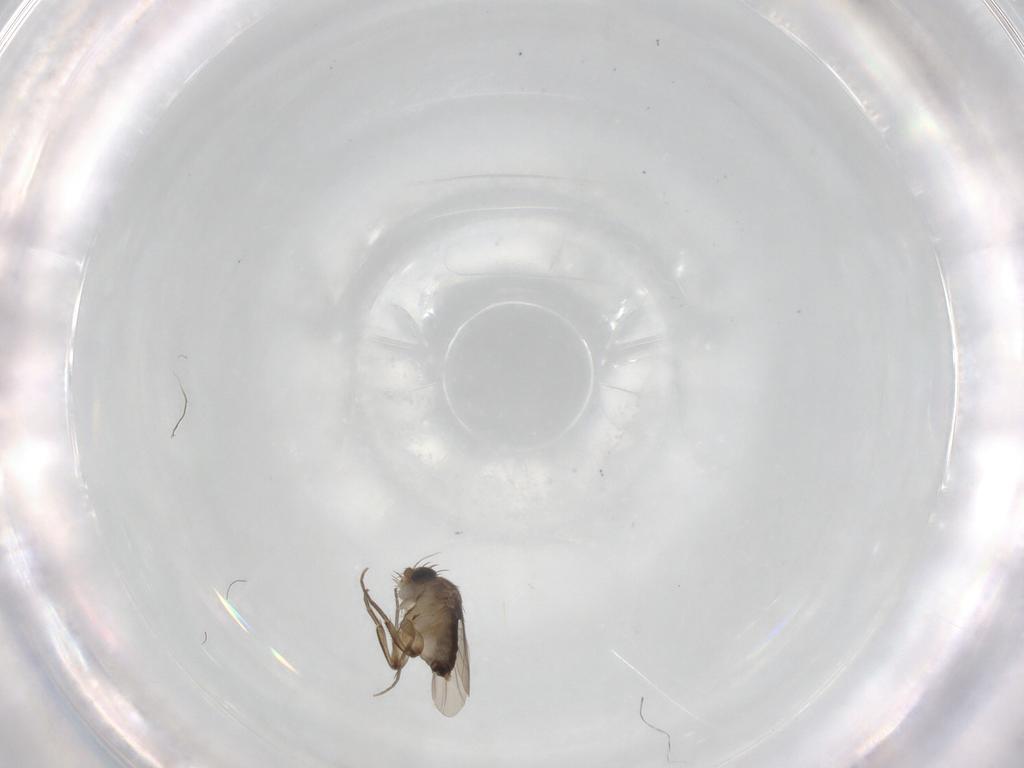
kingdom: Animalia
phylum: Arthropoda
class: Insecta
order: Diptera
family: Phoridae
